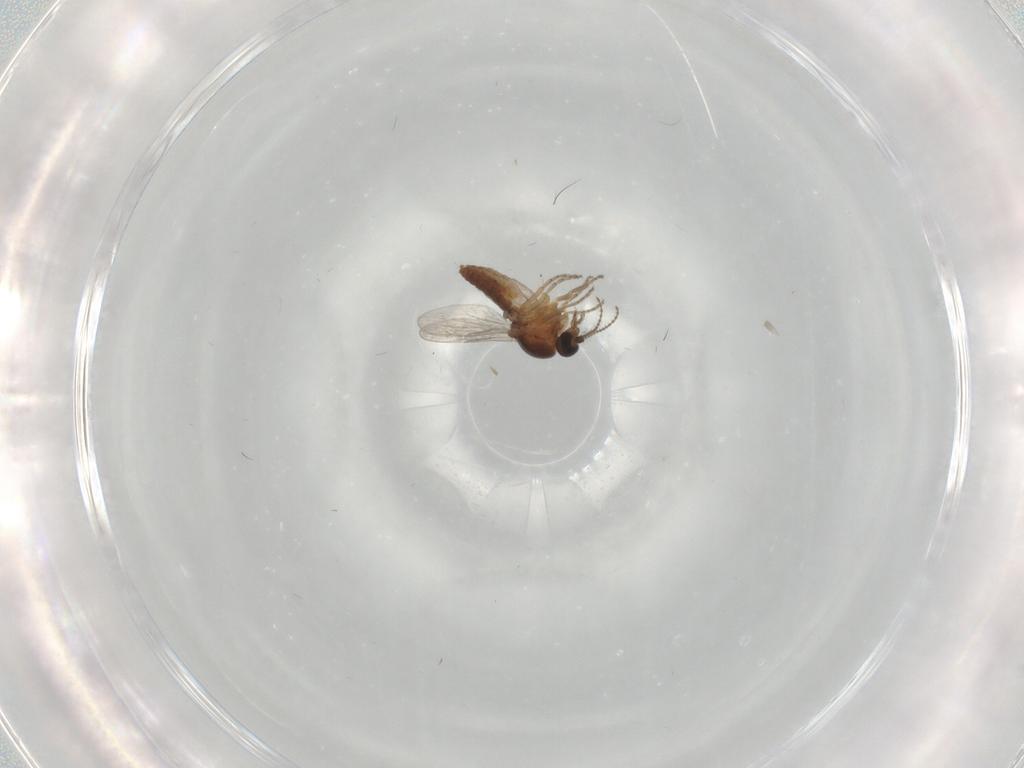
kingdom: Animalia
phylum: Arthropoda
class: Insecta
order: Diptera
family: Ceratopogonidae
